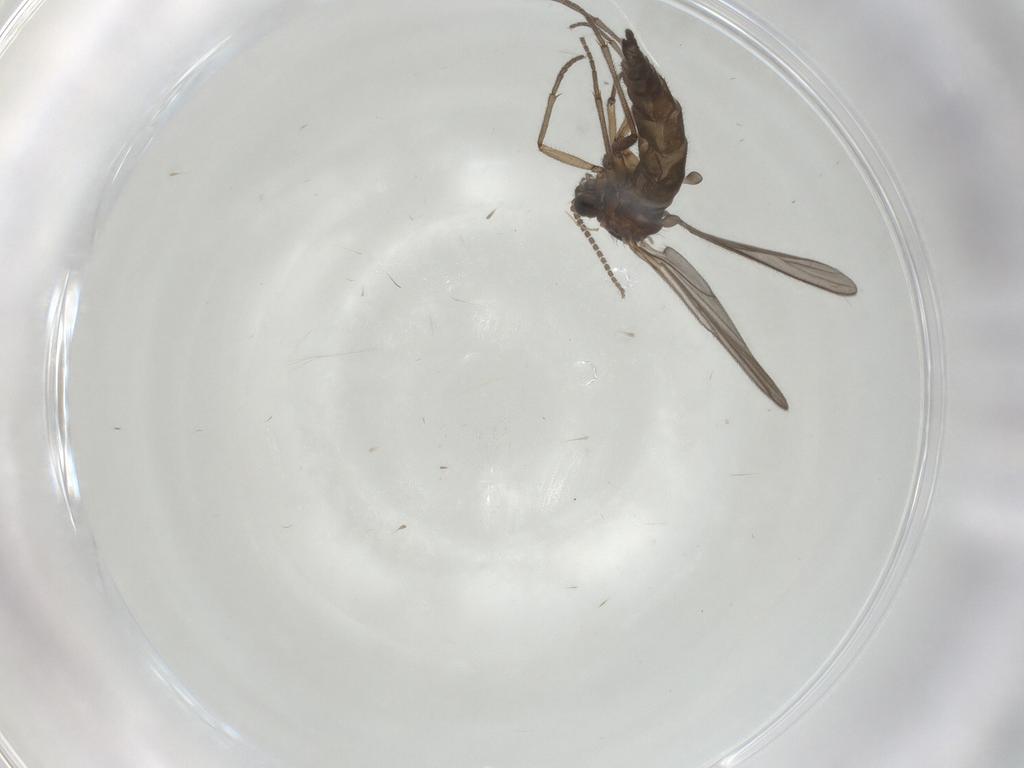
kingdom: Animalia
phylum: Arthropoda
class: Insecta
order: Diptera
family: Sciaridae
